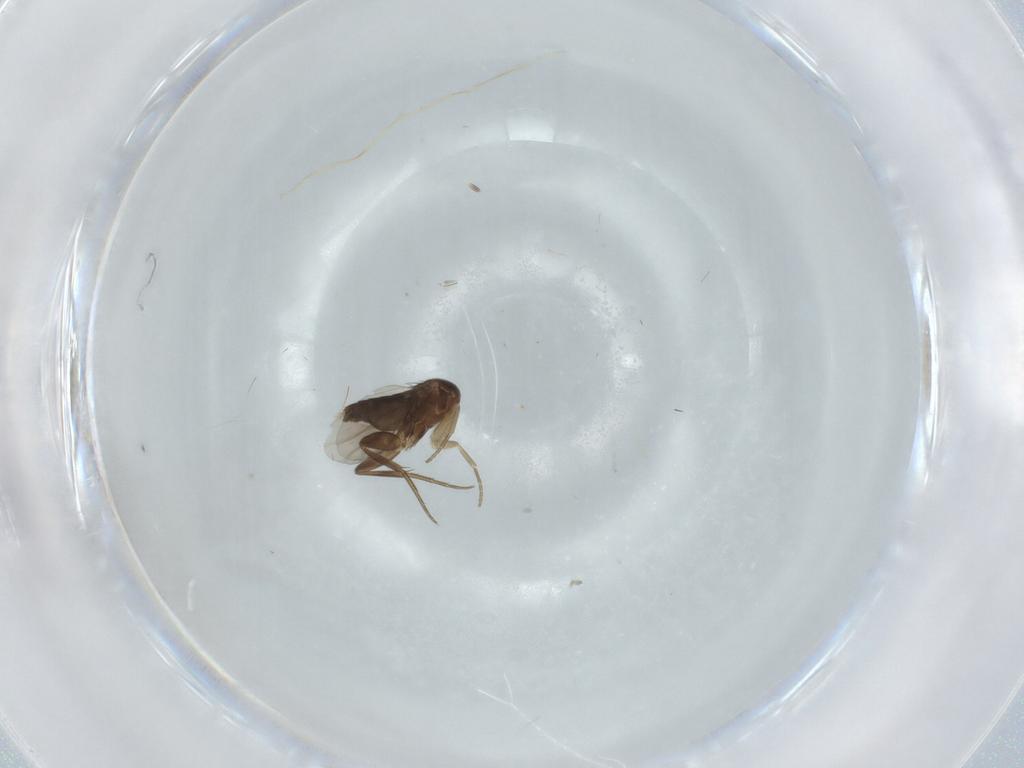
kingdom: Animalia
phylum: Arthropoda
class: Insecta
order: Diptera
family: Phoridae
